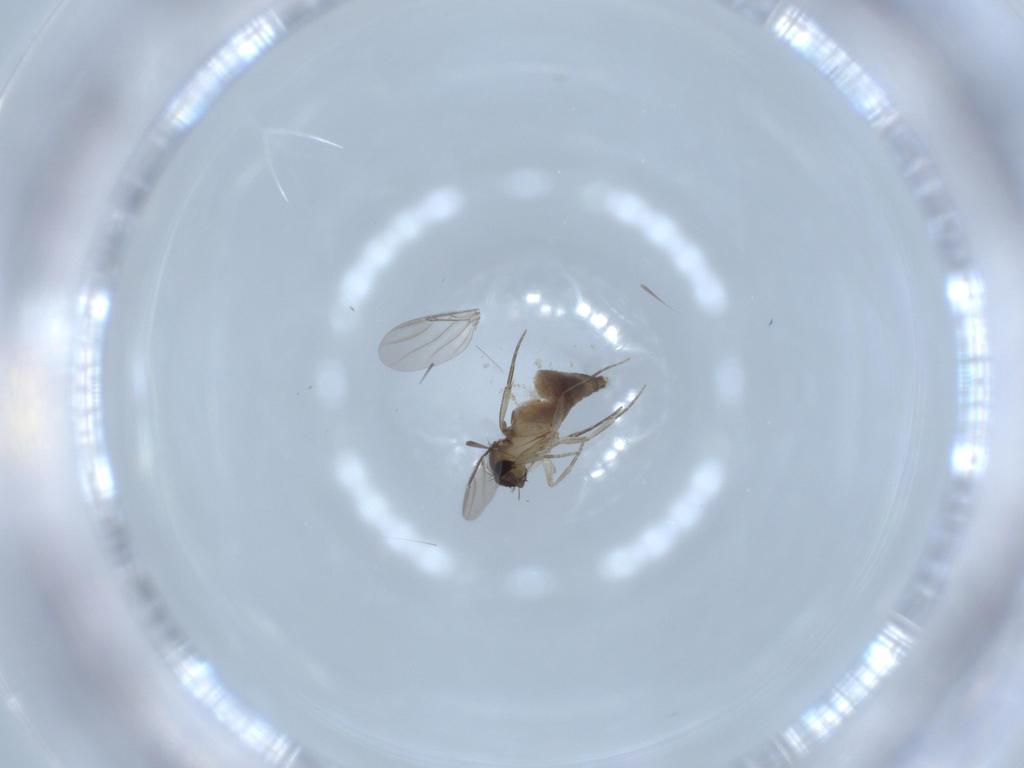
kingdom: Animalia
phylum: Arthropoda
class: Insecta
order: Diptera
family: Phoridae
